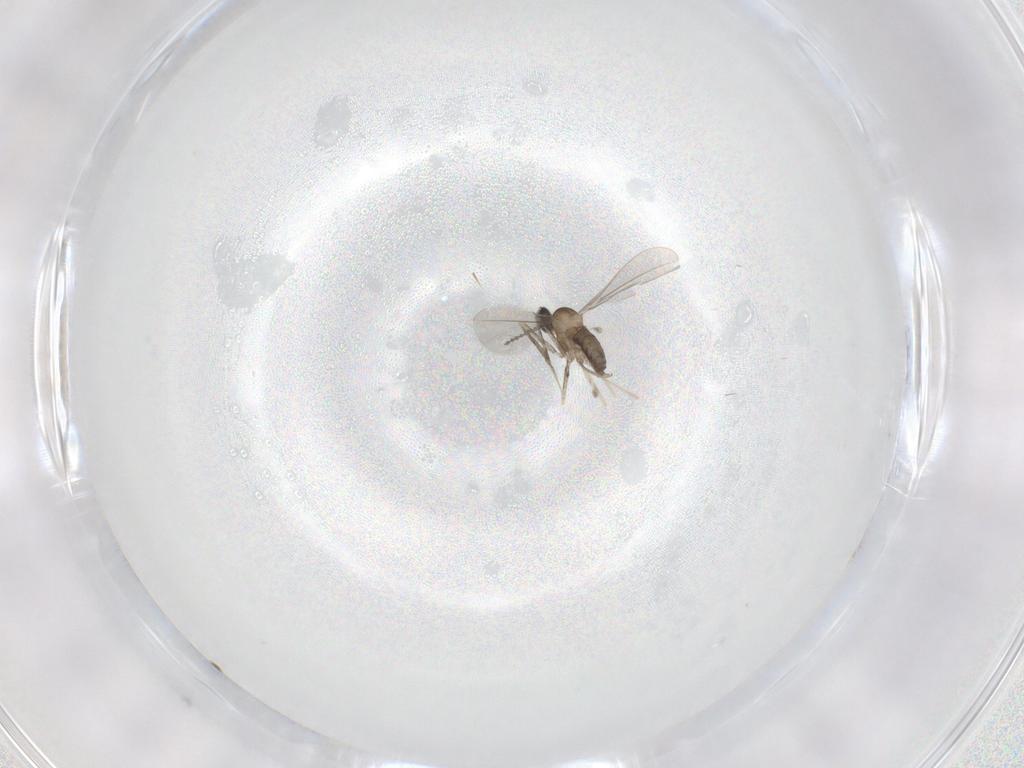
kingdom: Animalia
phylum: Arthropoda
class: Insecta
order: Diptera
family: Cecidomyiidae
